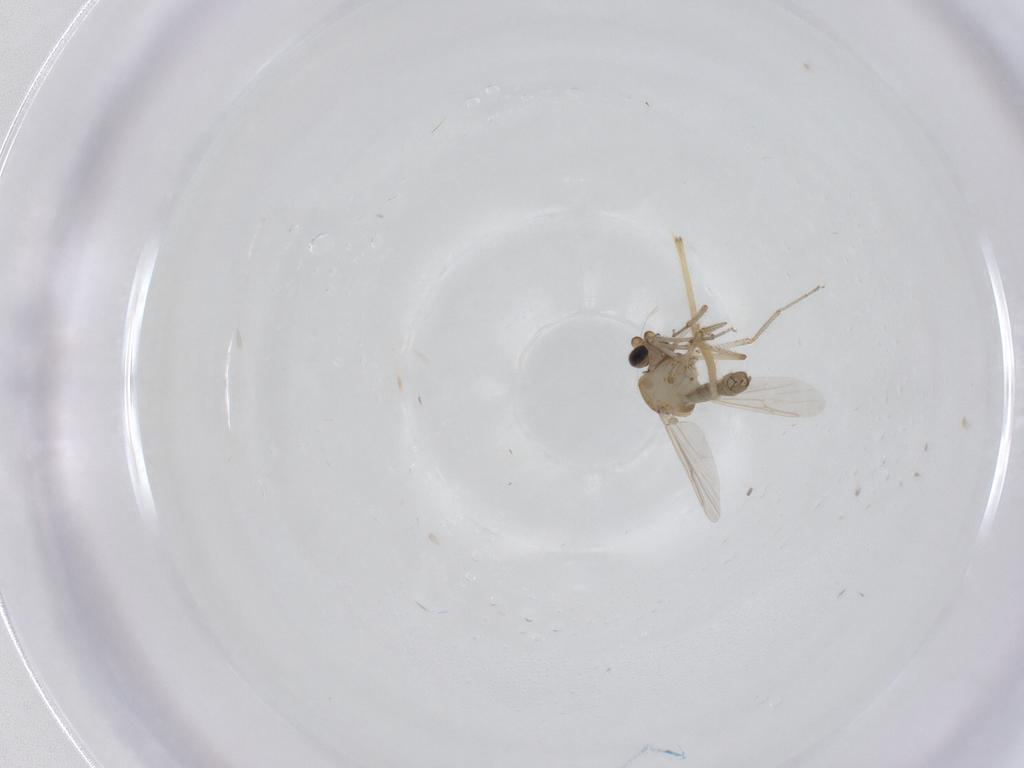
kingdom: Animalia
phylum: Arthropoda
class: Insecta
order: Diptera
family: Chironomidae
